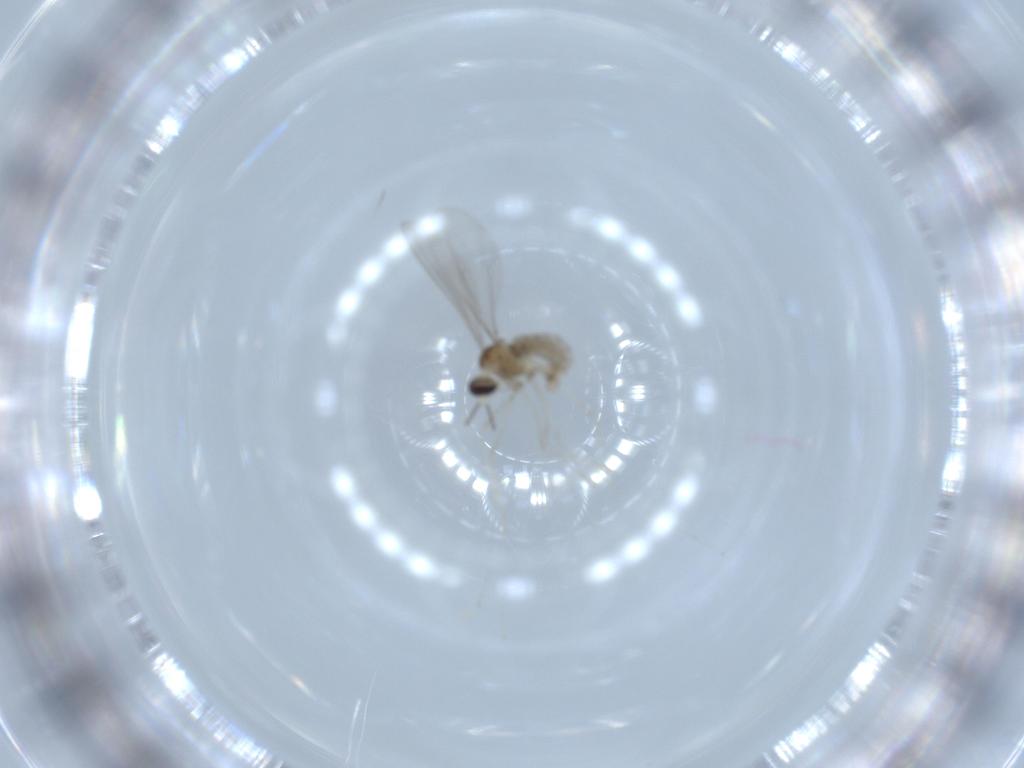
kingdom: Animalia
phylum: Arthropoda
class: Insecta
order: Diptera
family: Cecidomyiidae
